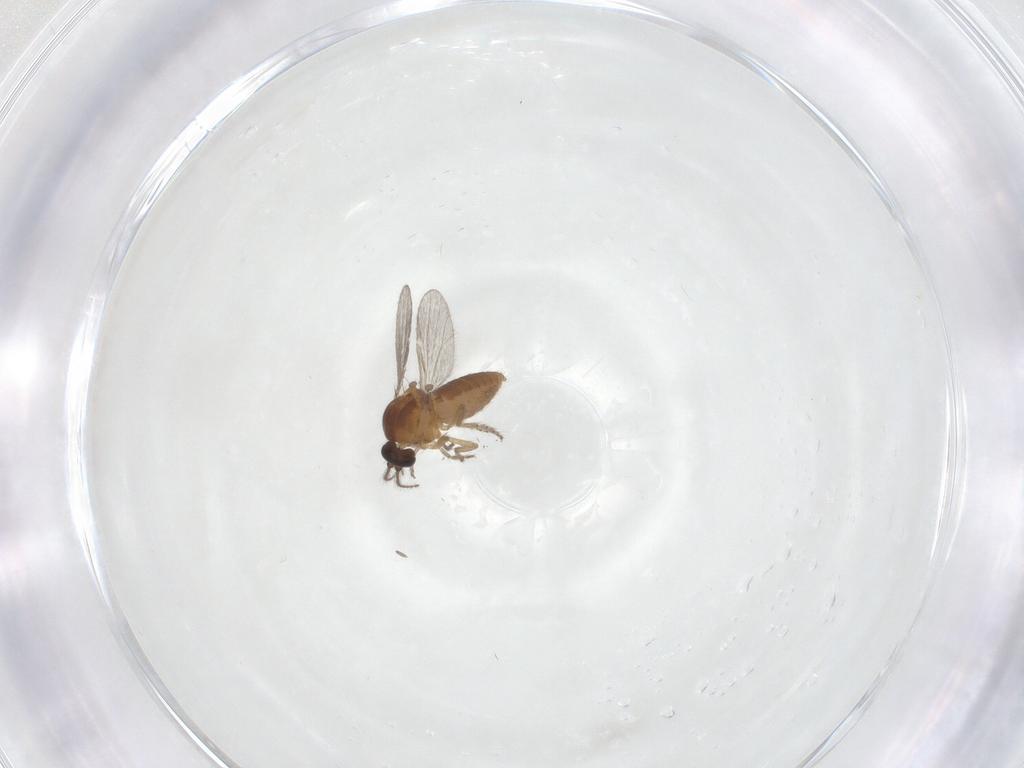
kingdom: Animalia
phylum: Arthropoda
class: Insecta
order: Diptera
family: Ceratopogonidae
